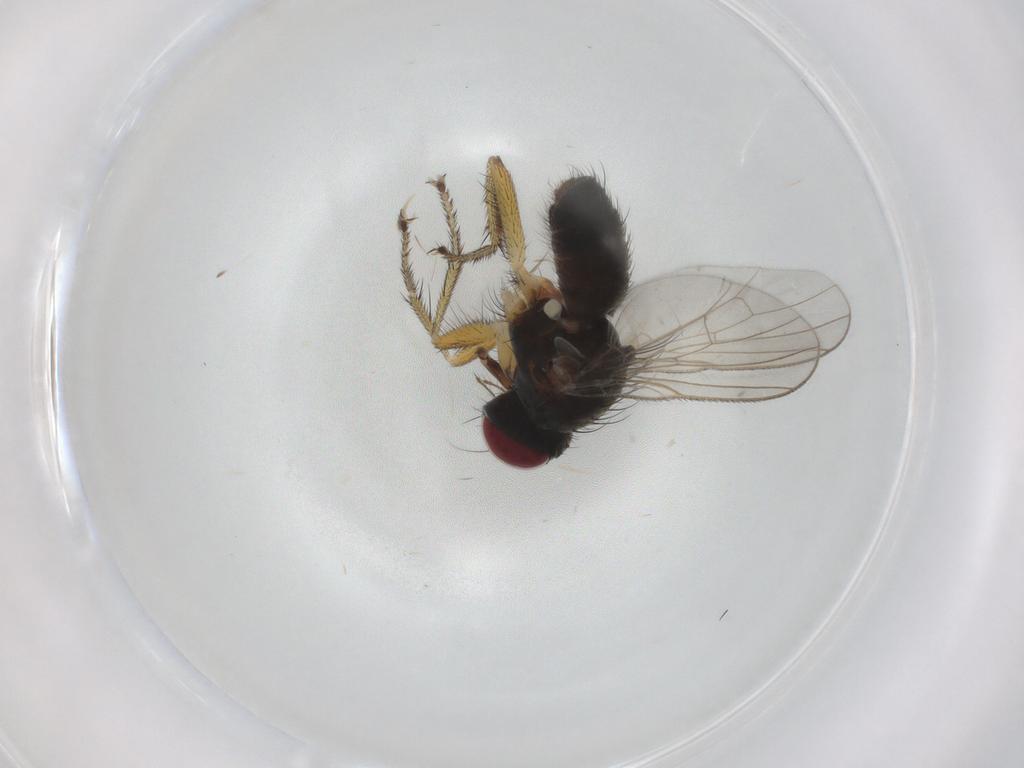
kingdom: Animalia
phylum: Arthropoda
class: Insecta
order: Diptera
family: Muscidae
